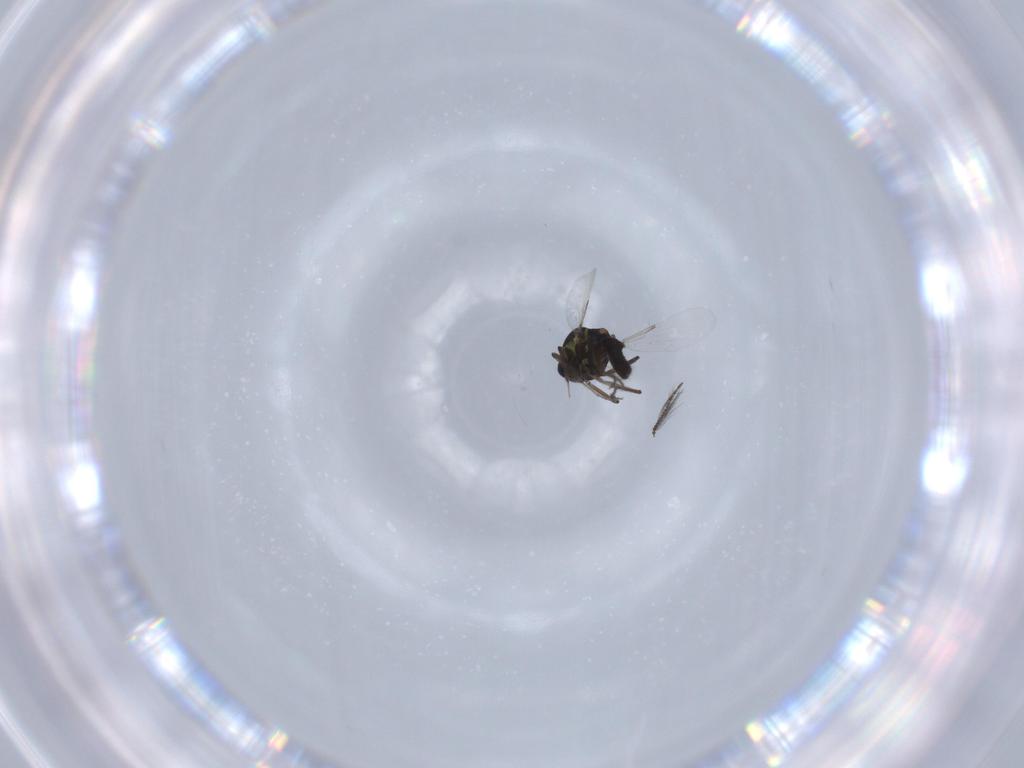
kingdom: Animalia
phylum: Arthropoda
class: Insecta
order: Diptera
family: Ceratopogonidae
